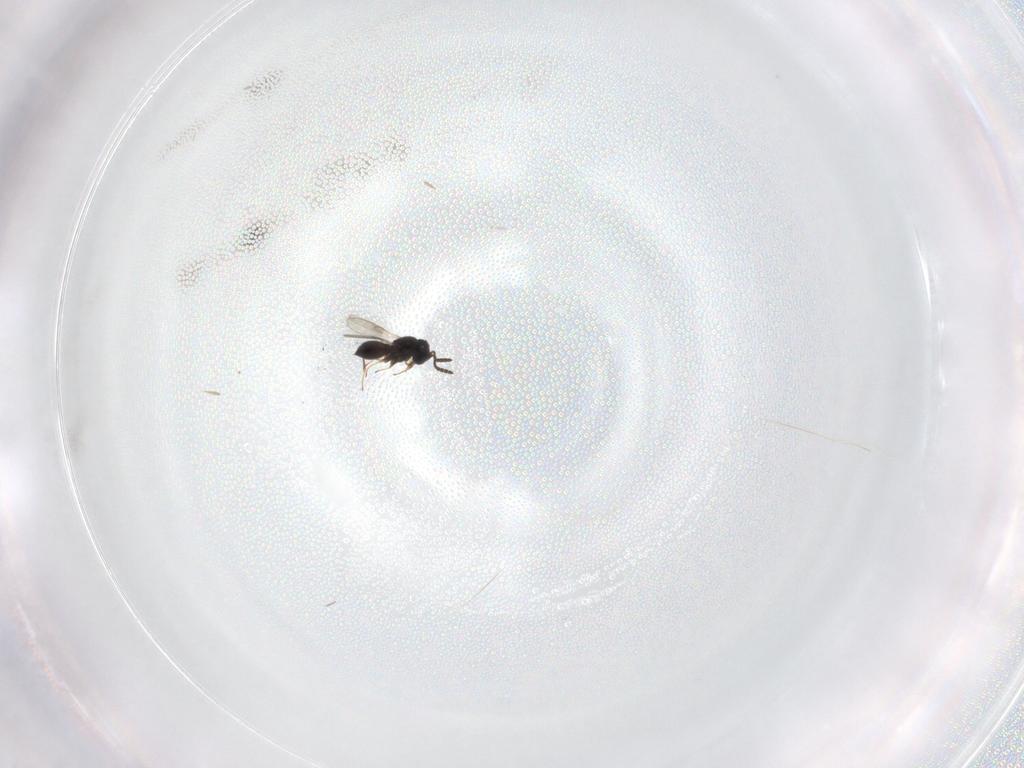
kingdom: Animalia
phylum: Arthropoda
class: Insecta
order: Hymenoptera
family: Scelionidae
